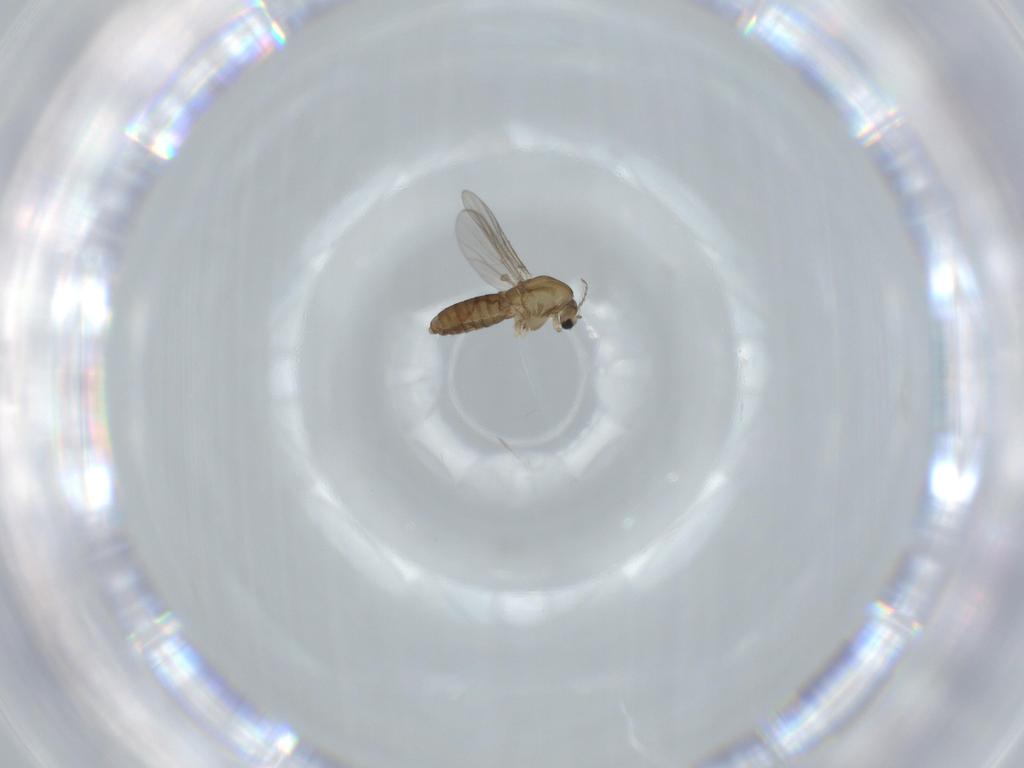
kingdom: Animalia
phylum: Arthropoda
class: Insecta
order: Diptera
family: Chironomidae
